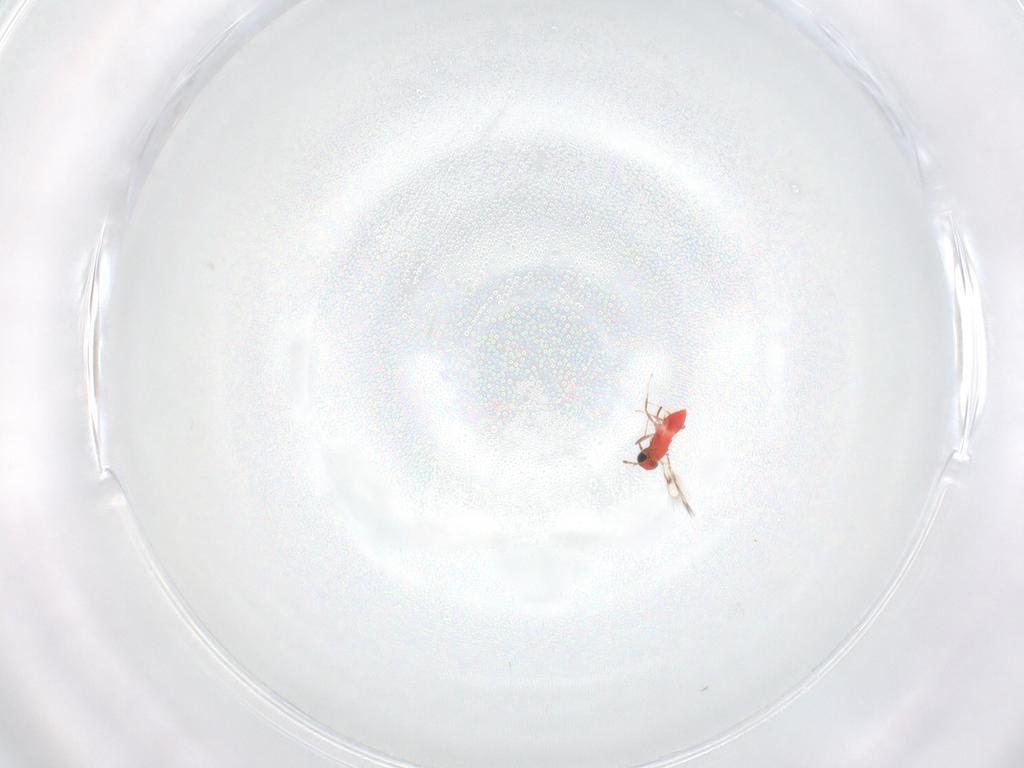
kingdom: Animalia
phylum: Arthropoda
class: Insecta
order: Hymenoptera
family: Trichogrammatidae
